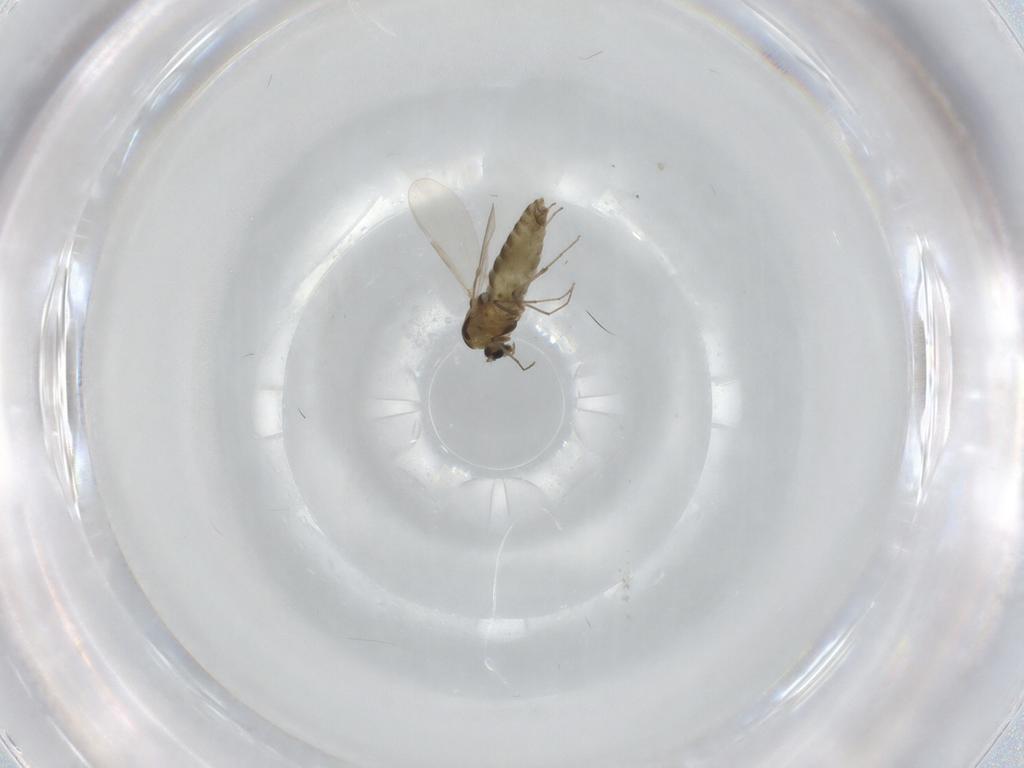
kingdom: Animalia
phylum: Arthropoda
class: Insecta
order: Diptera
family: Chironomidae
